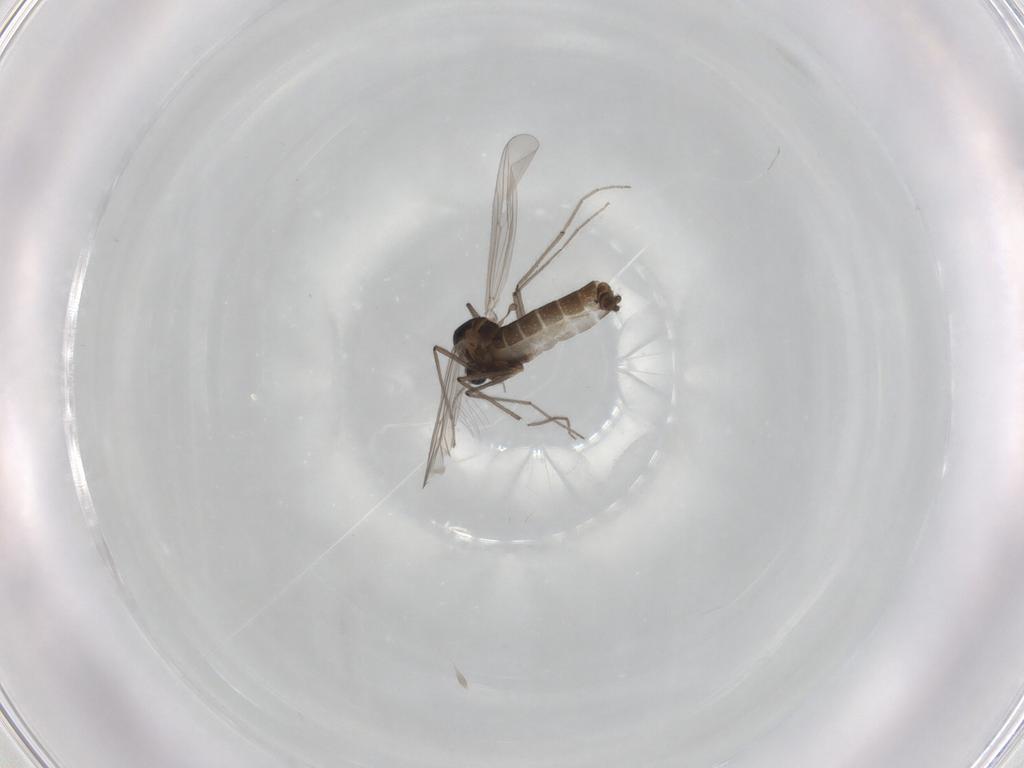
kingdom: Animalia
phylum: Arthropoda
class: Insecta
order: Diptera
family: Chironomidae
